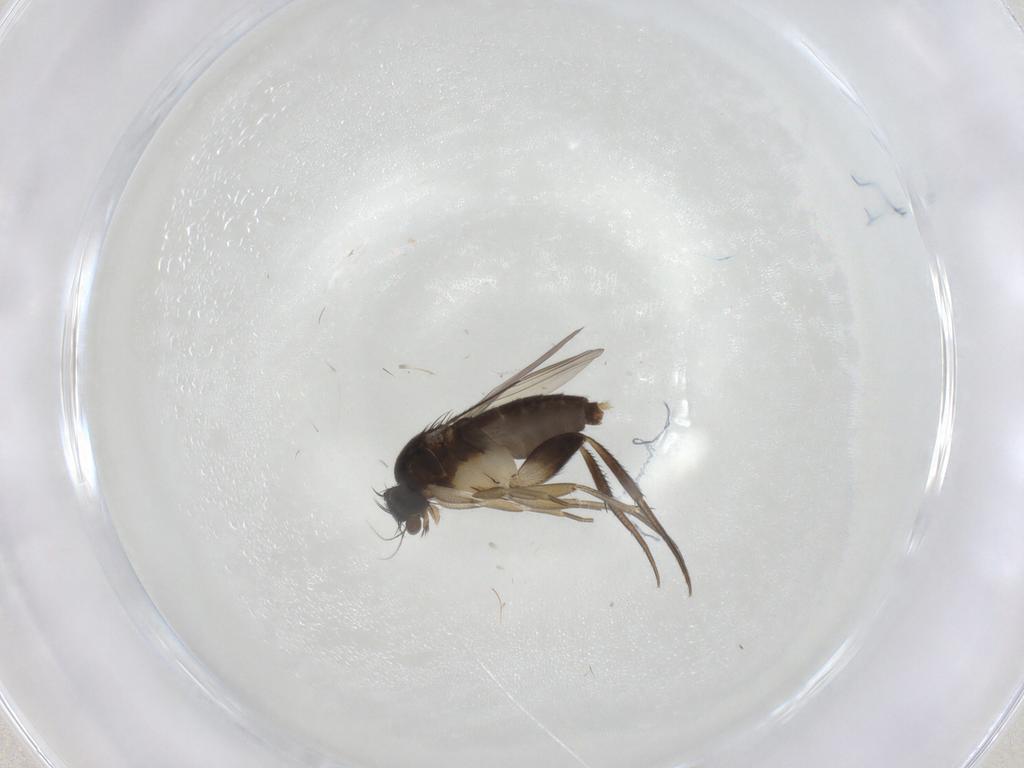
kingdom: Animalia
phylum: Arthropoda
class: Insecta
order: Diptera
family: Phoridae
